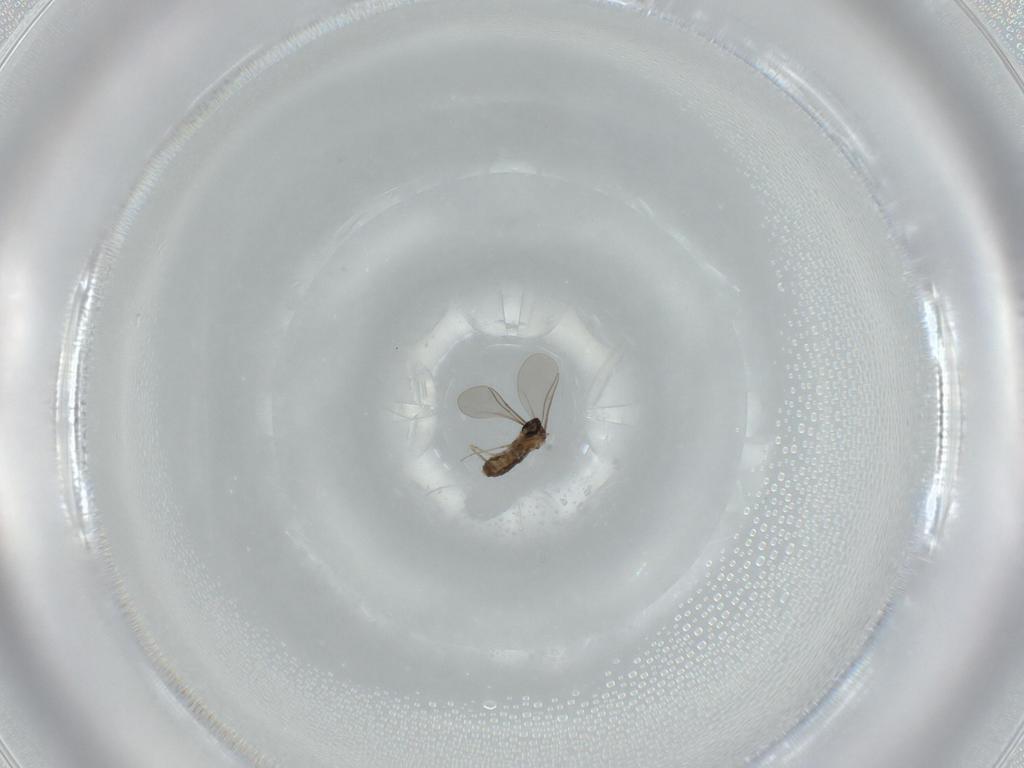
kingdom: Animalia
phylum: Arthropoda
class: Insecta
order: Diptera
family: Cecidomyiidae
